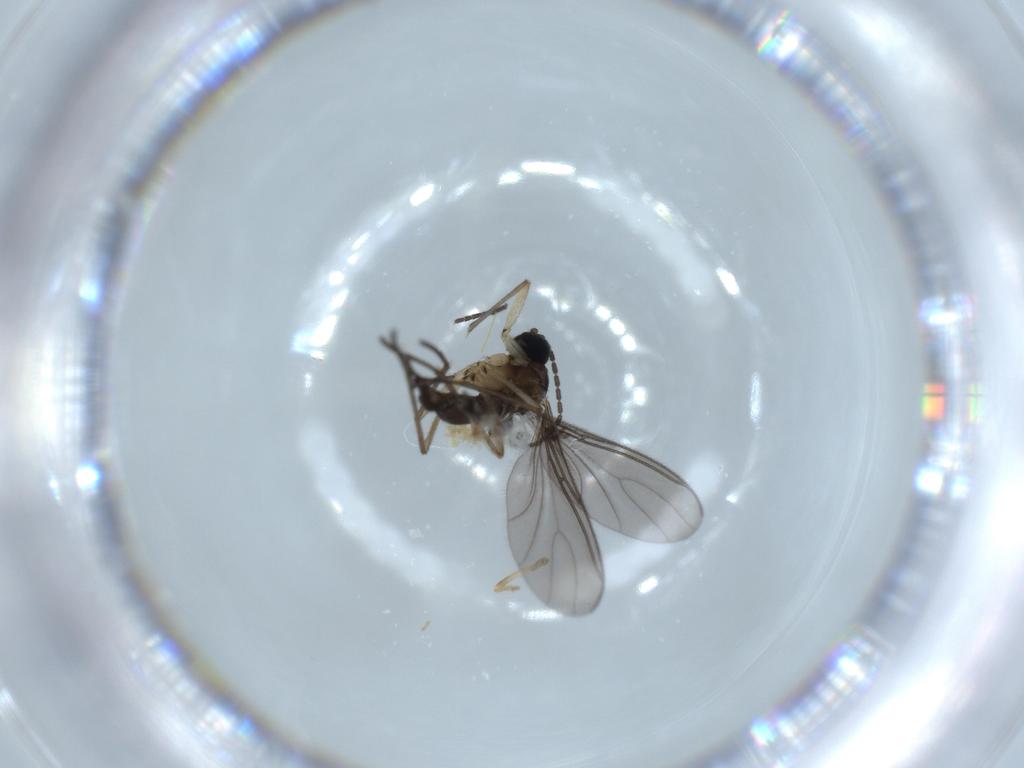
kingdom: Animalia
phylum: Arthropoda
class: Insecta
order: Diptera
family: Sciaridae
